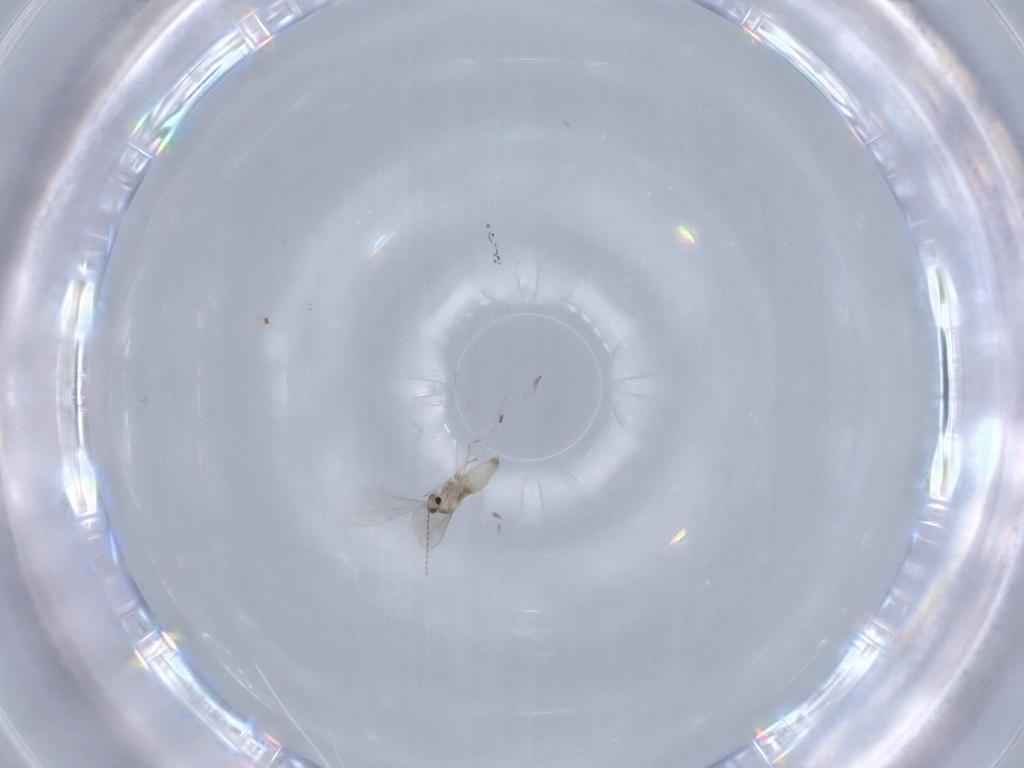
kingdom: Animalia
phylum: Arthropoda
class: Insecta
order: Diptera
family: Cecidomyiidae
